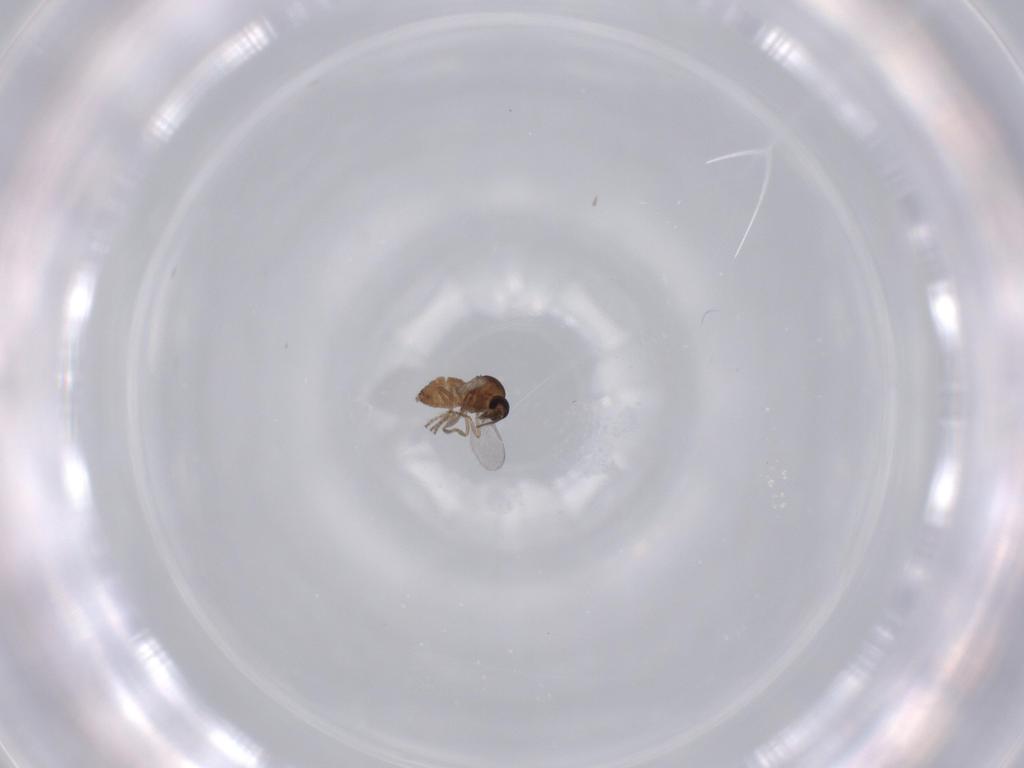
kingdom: Animalia
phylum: Arthropoda
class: Insecta
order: Diptera
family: Ceratopogonidae
